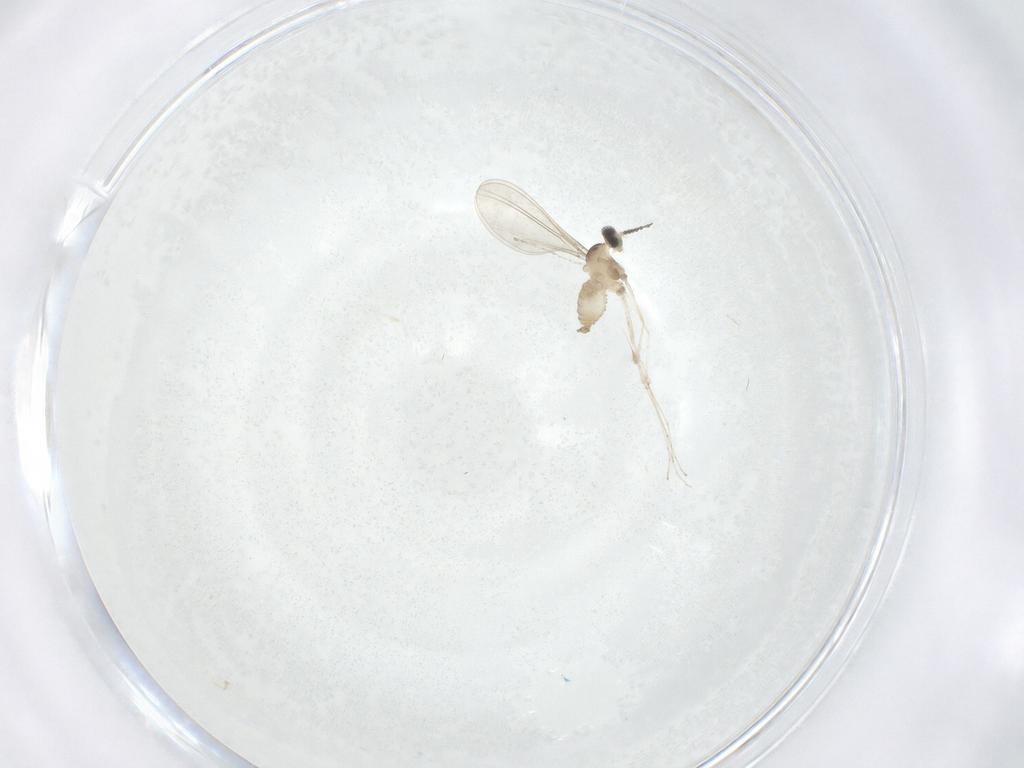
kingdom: Animalia
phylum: Arthropoda
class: Insecta
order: Diptera
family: Cecidomyiidae
